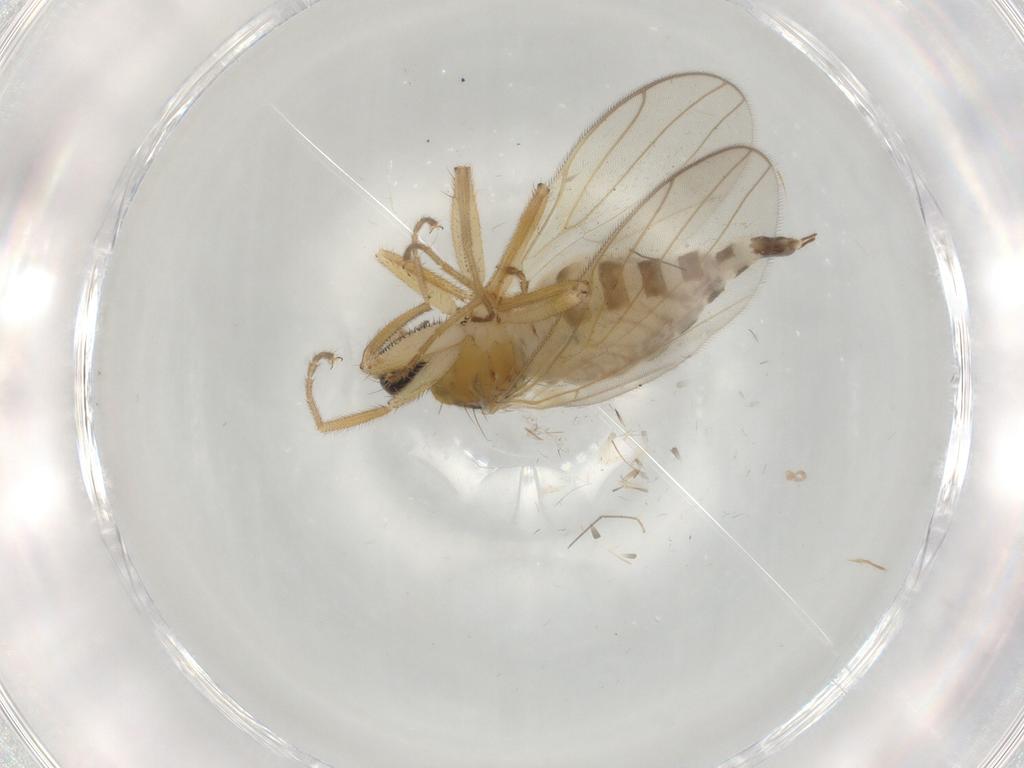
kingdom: Animalia
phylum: Arthropoda
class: Insecta
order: Diptera
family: Hybotidae
